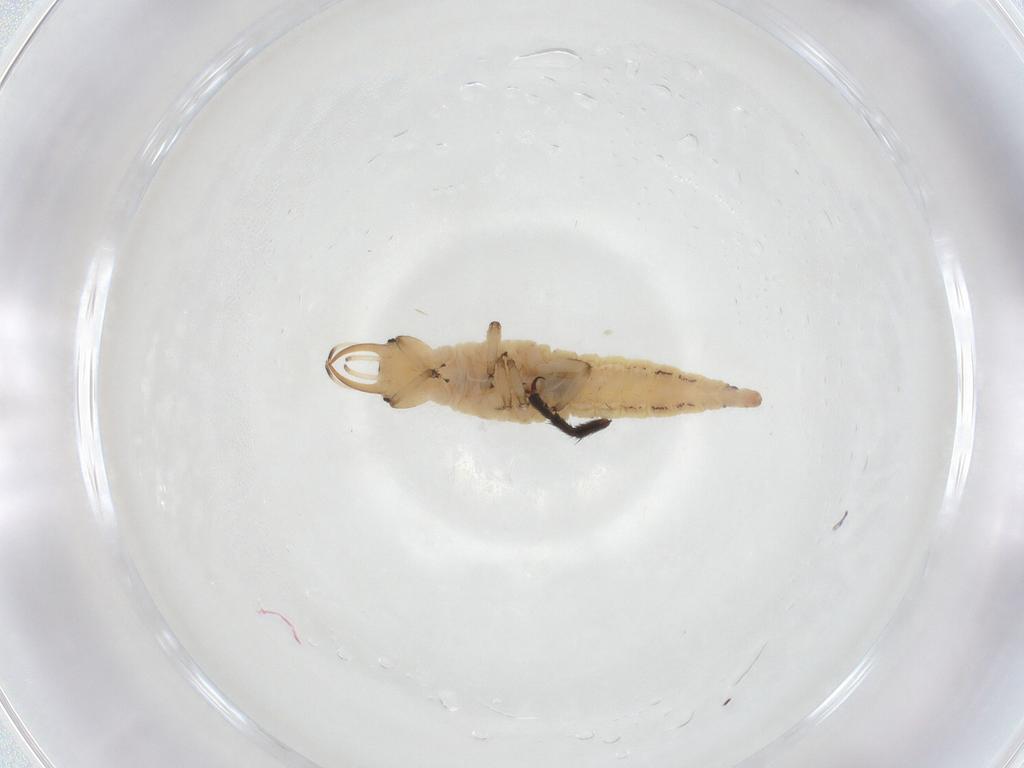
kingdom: Animalia
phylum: Arthropoda
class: Insecta
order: Neuroptera
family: Chrysopidae
